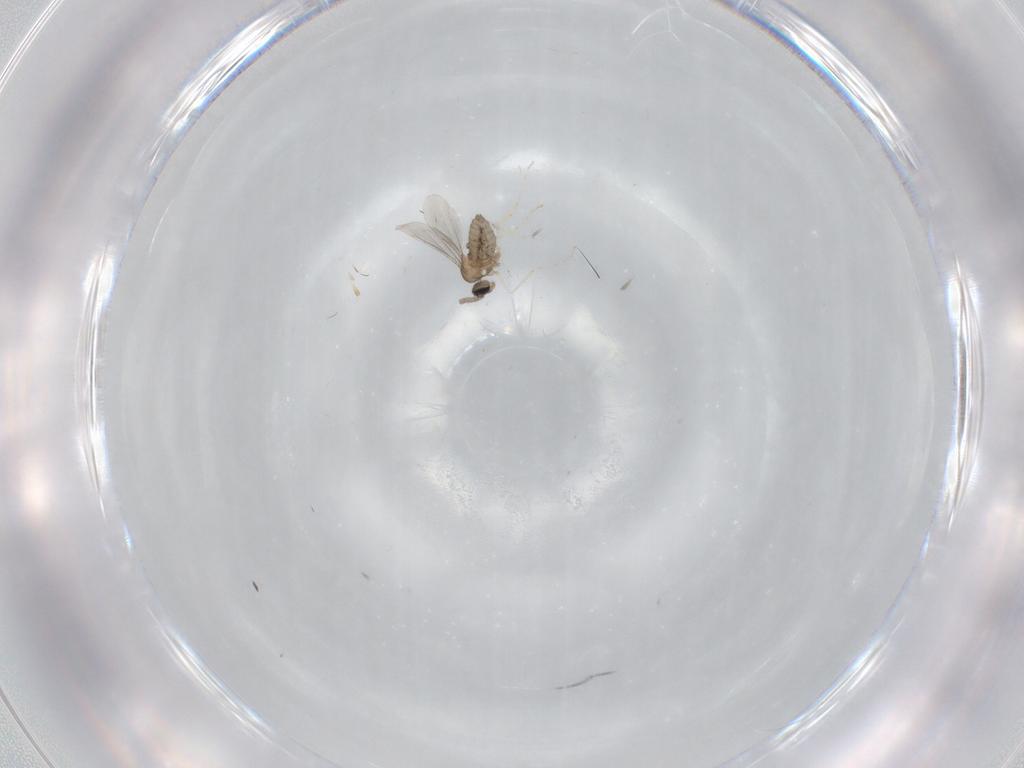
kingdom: Animalia
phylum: Arthropoda
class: Insecta
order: Diptera
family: Cecidomyiidae
